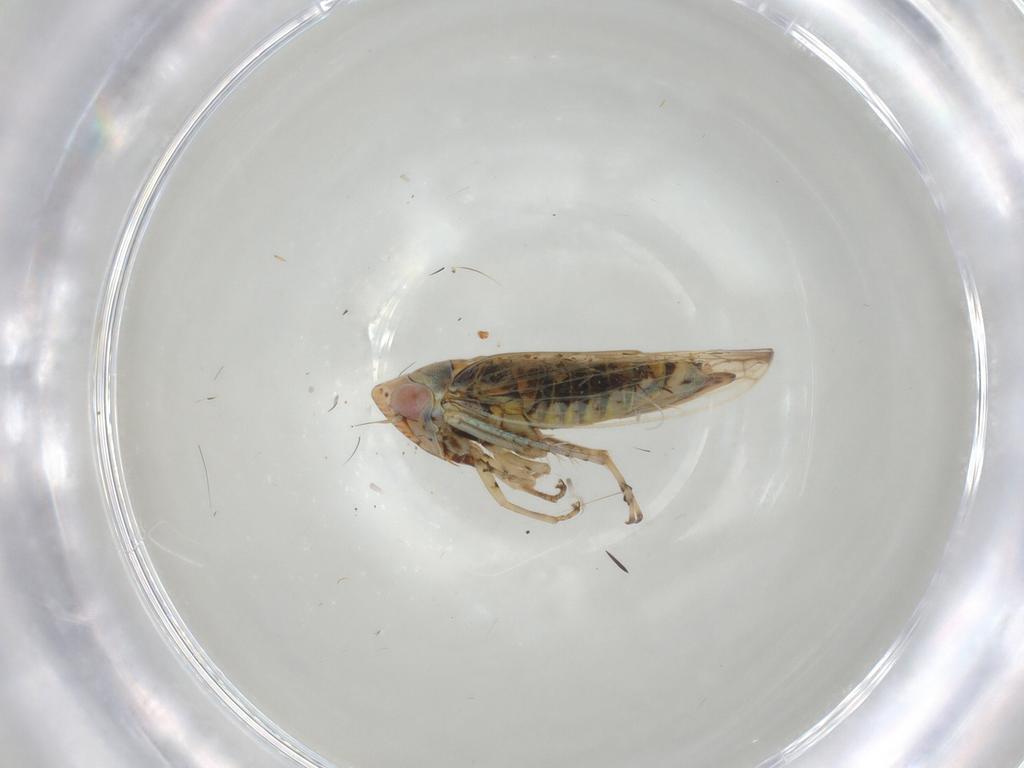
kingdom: Animalia
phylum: Arthropoda
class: Insecta
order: Hemiptera
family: Cicadellidae
